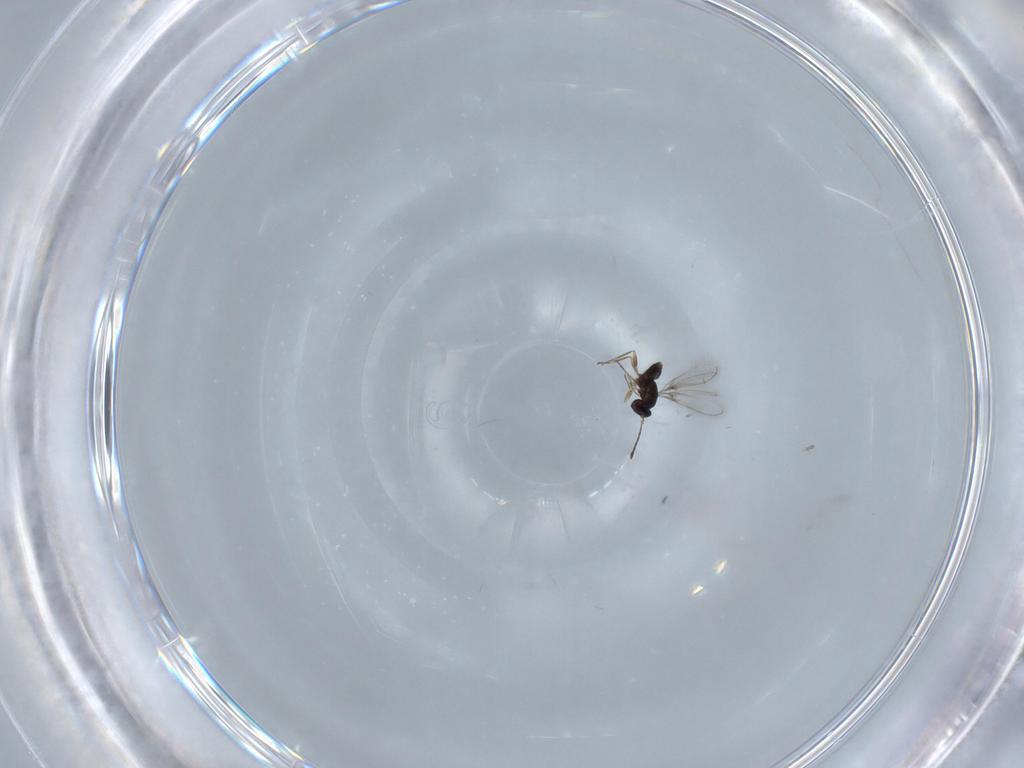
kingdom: Animalia
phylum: Arthropoda
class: Insecta
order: Hymenoptera
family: Mymaridae
